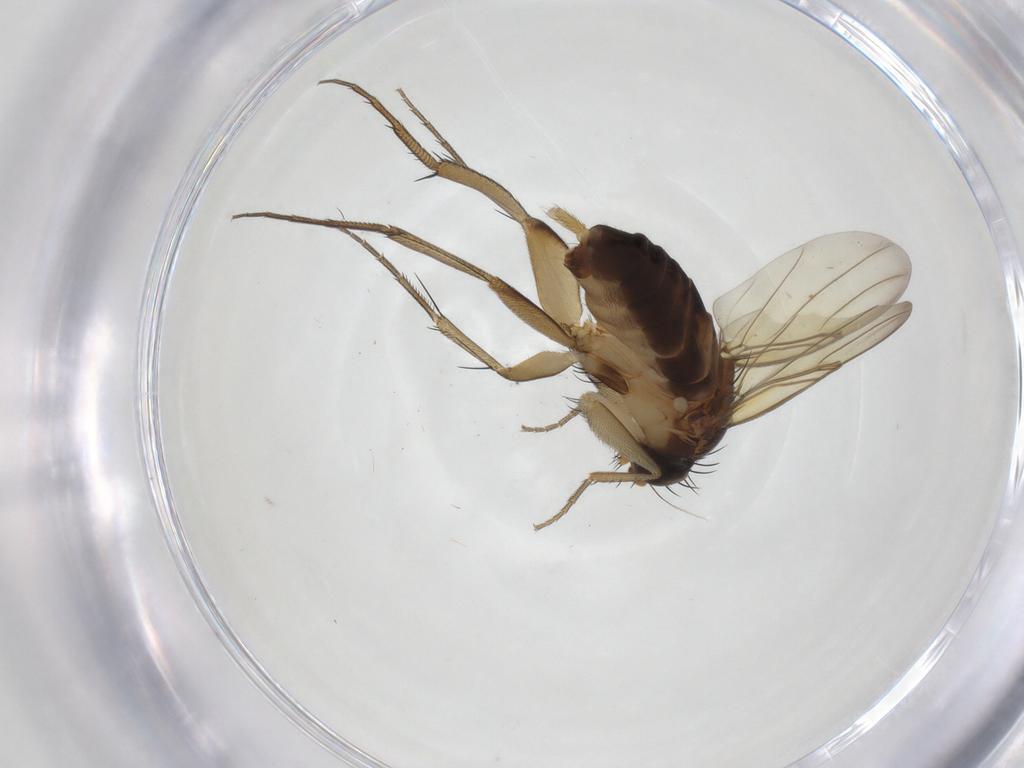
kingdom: Animalia
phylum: Arthropoda
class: Insecta
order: Diptera
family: Phoridae
